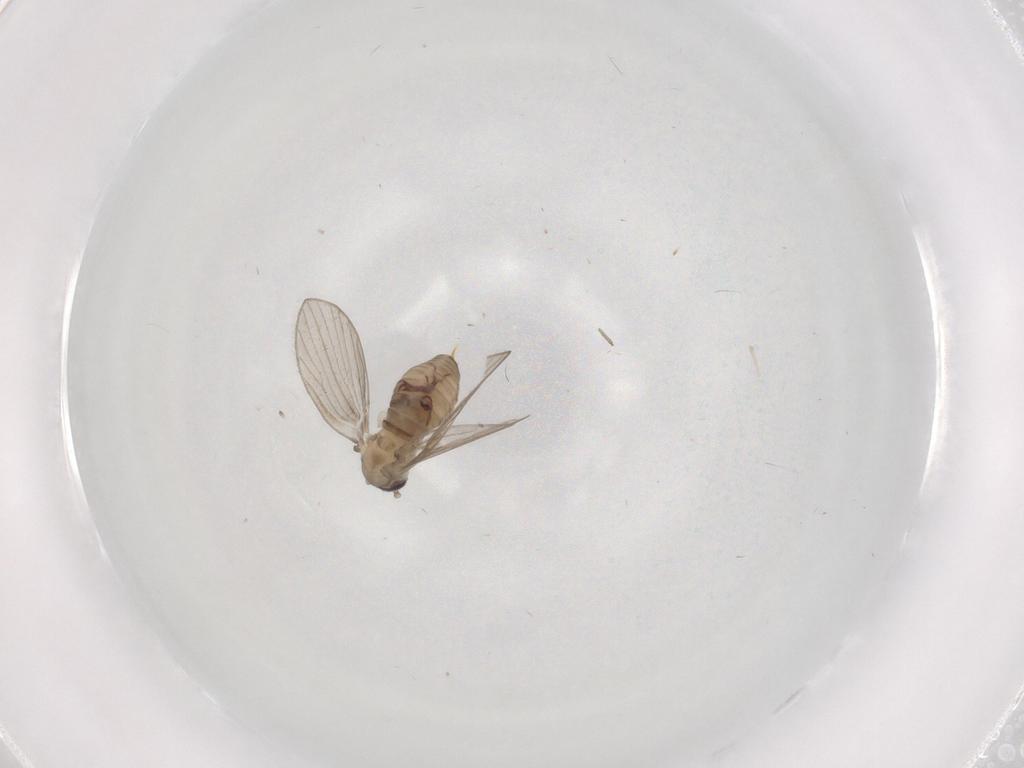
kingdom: Animalia
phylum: Arthropoda
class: Insecta
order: Diptera
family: Psychodidae
